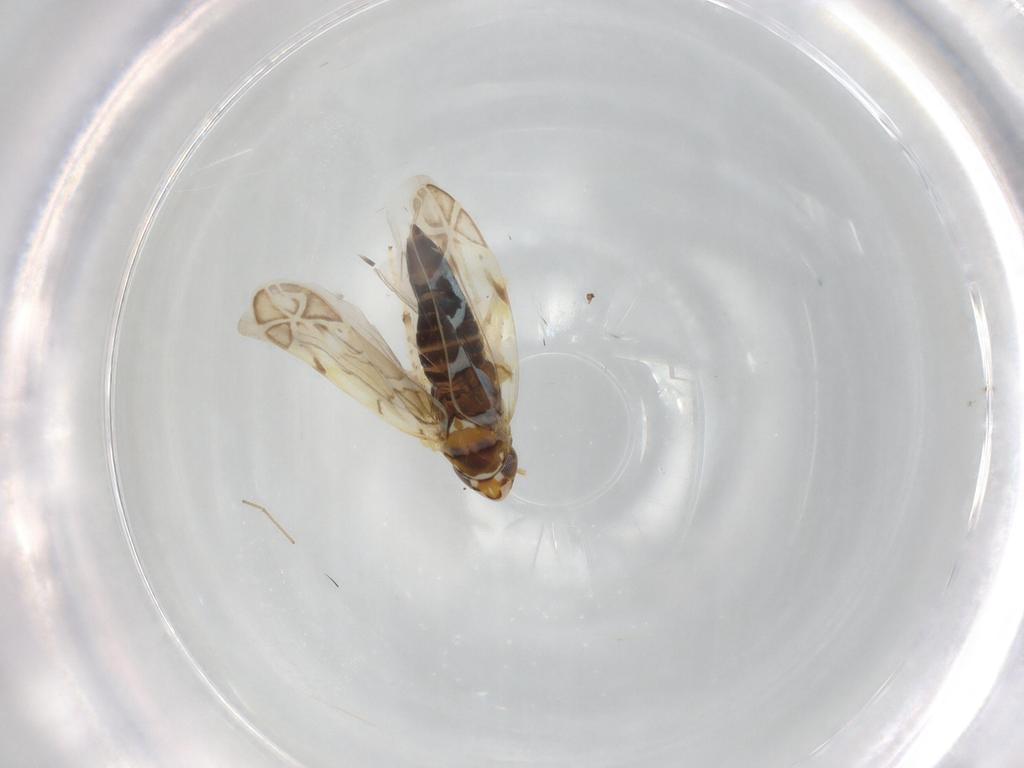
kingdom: Animalia
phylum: Arthropoda
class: Insecta
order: Hemiptera
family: Cicadellidae
